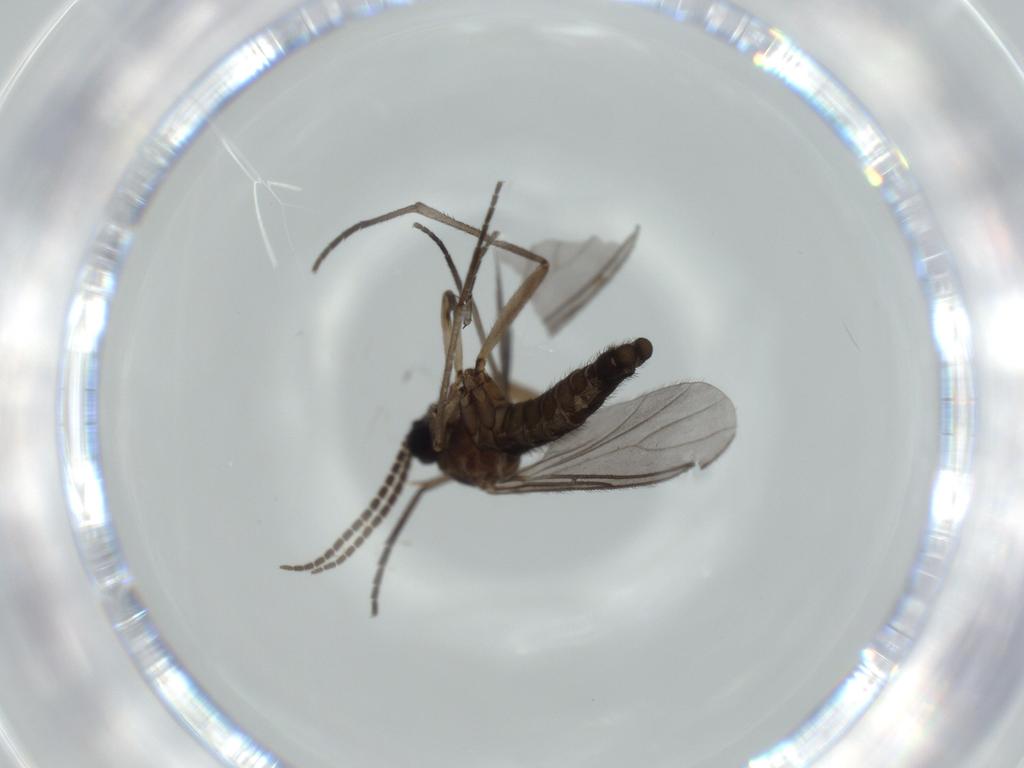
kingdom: Animalia
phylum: Arthropoda
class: Insecta
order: Diptera
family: Sciaridae
